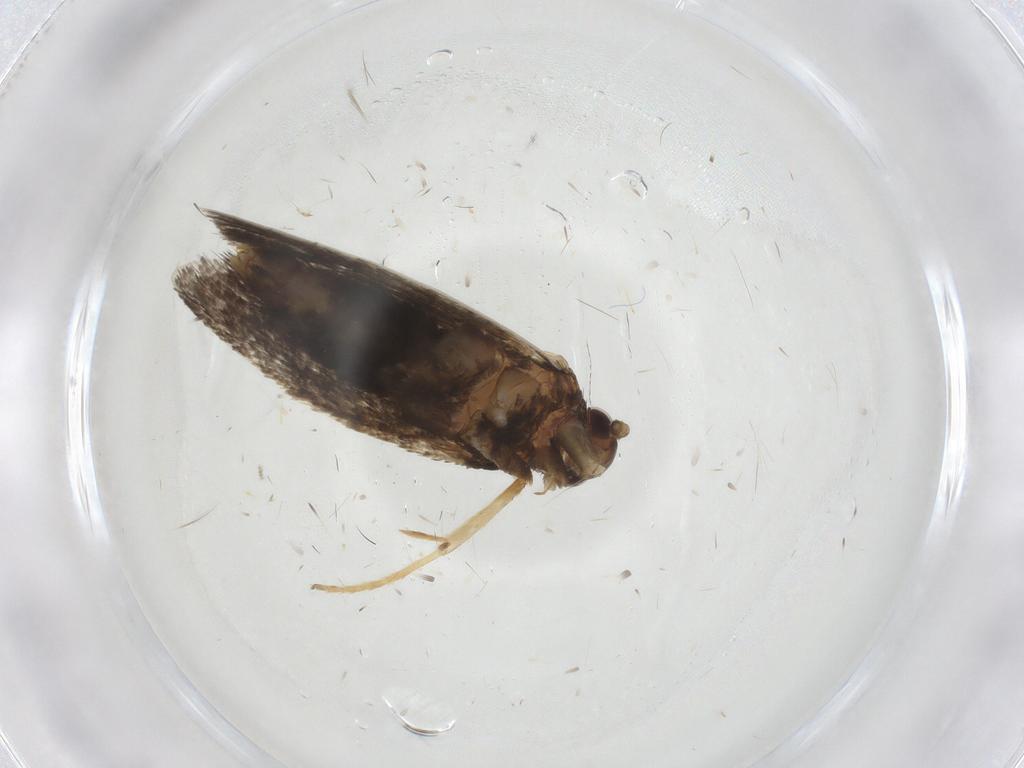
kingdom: Animalia
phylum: Arthropoda
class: Insecta
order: Lepidoptera
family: Lecithoceridae
